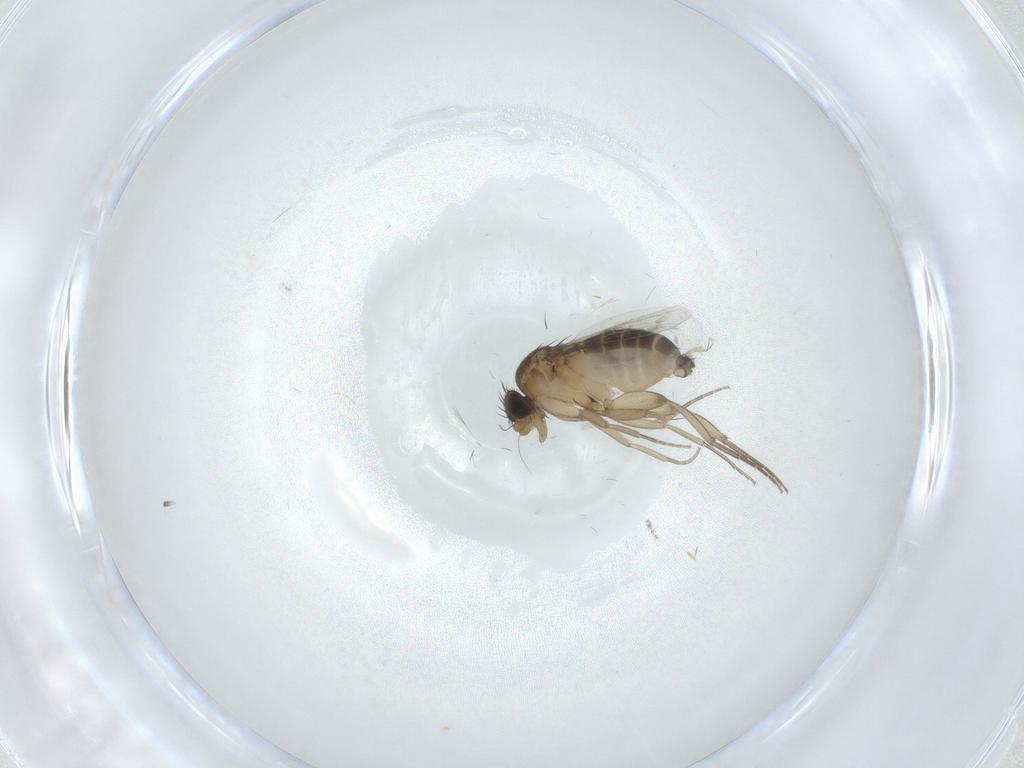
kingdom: Animalia
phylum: Arthropoda
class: Insecta
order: Diptera
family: Phoridae
